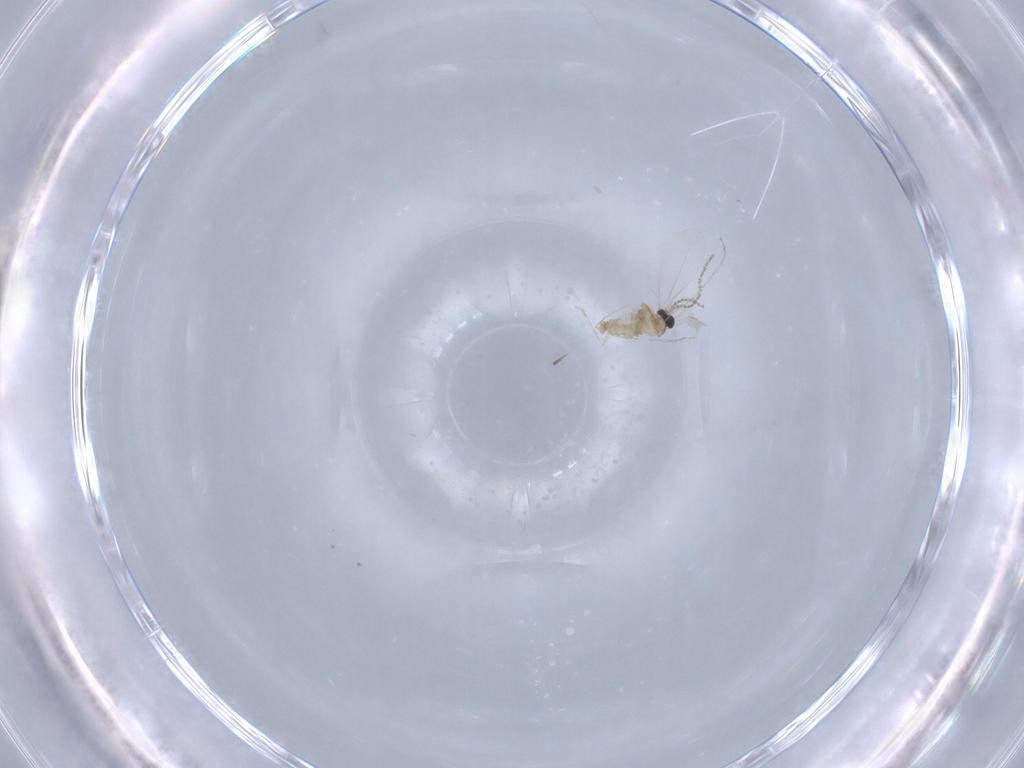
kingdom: Animalia
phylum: Arthropoda
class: Insecta
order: Diptera
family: Cecidomyiidae
